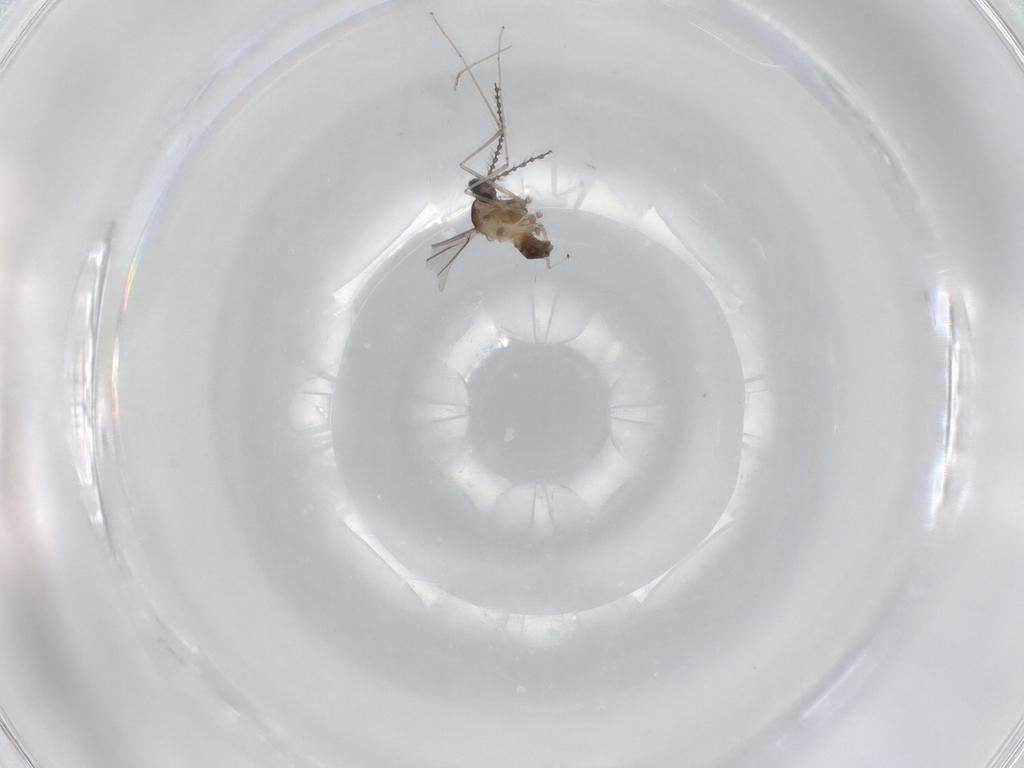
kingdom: Animalia
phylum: Arthropoda
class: Insecta
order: Diptera
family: Cecidomyiidae
